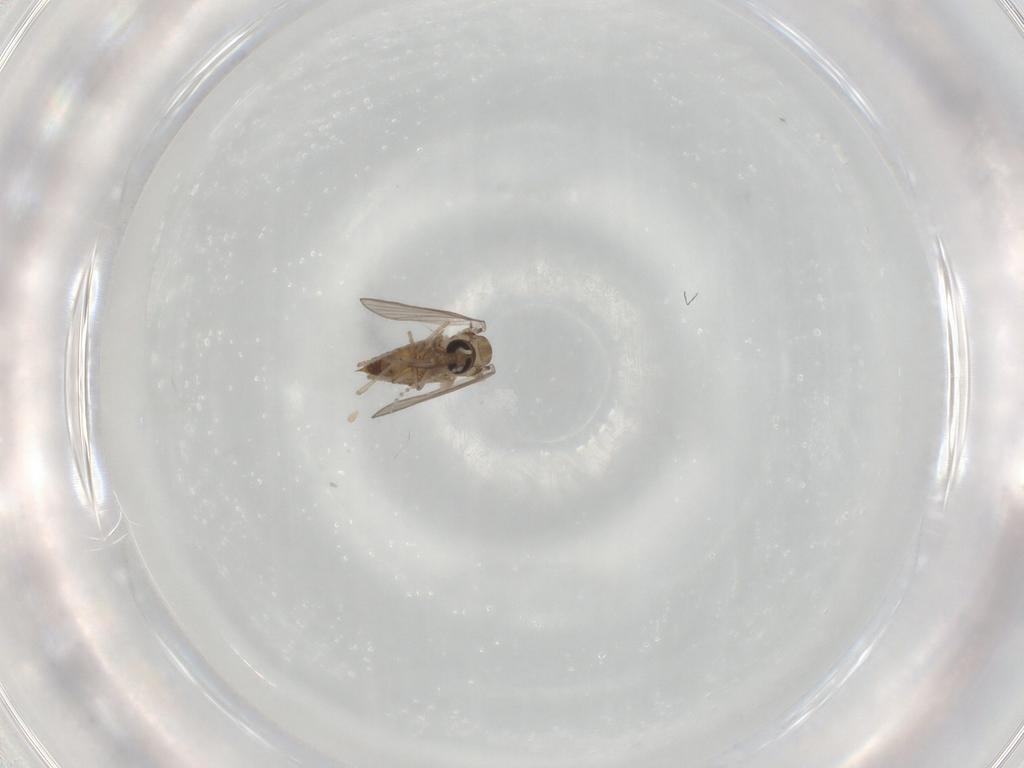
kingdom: Animalia
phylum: Arthropoda
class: Insecta
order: Diptera
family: Psychodidae
